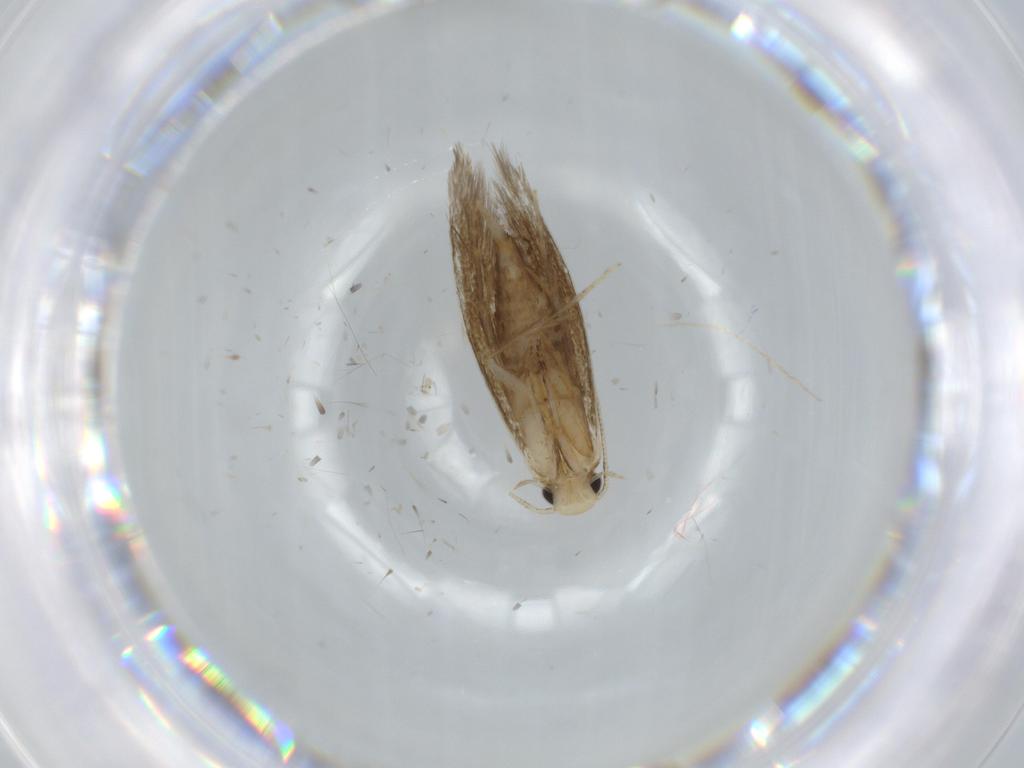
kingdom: Animalia
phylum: Arthropoda
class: Insecta
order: Lepidoptera
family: Tineidae
